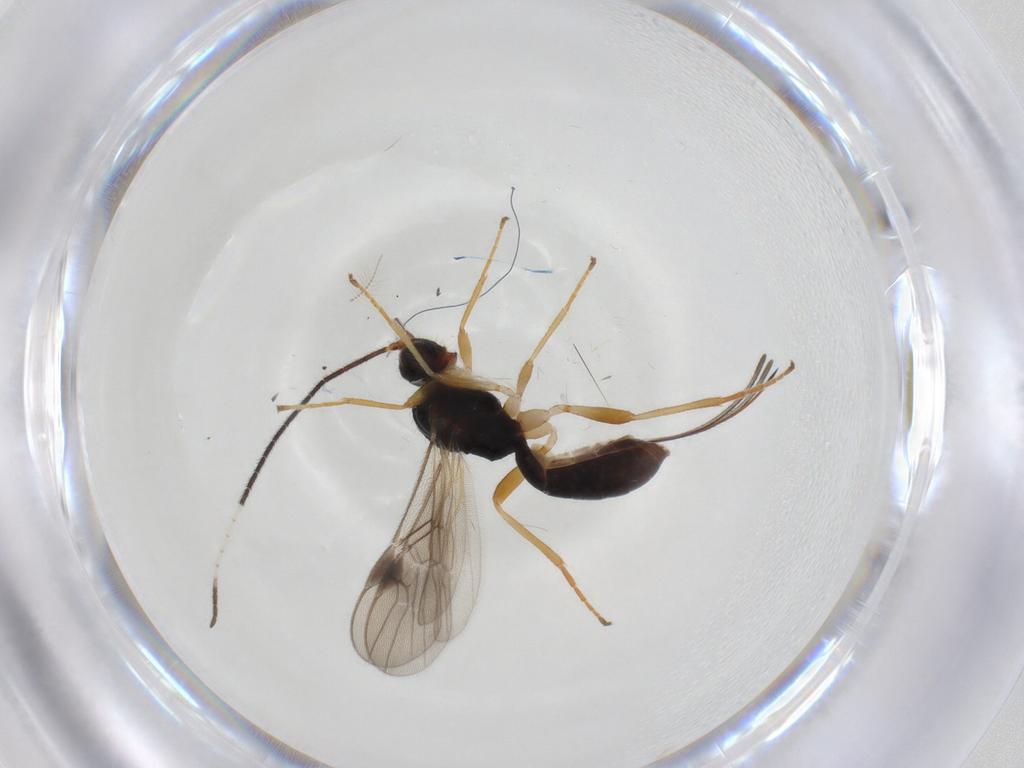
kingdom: Animalia
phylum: Arthropoda
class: Insecta
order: Hymenoptera
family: Braconidae
